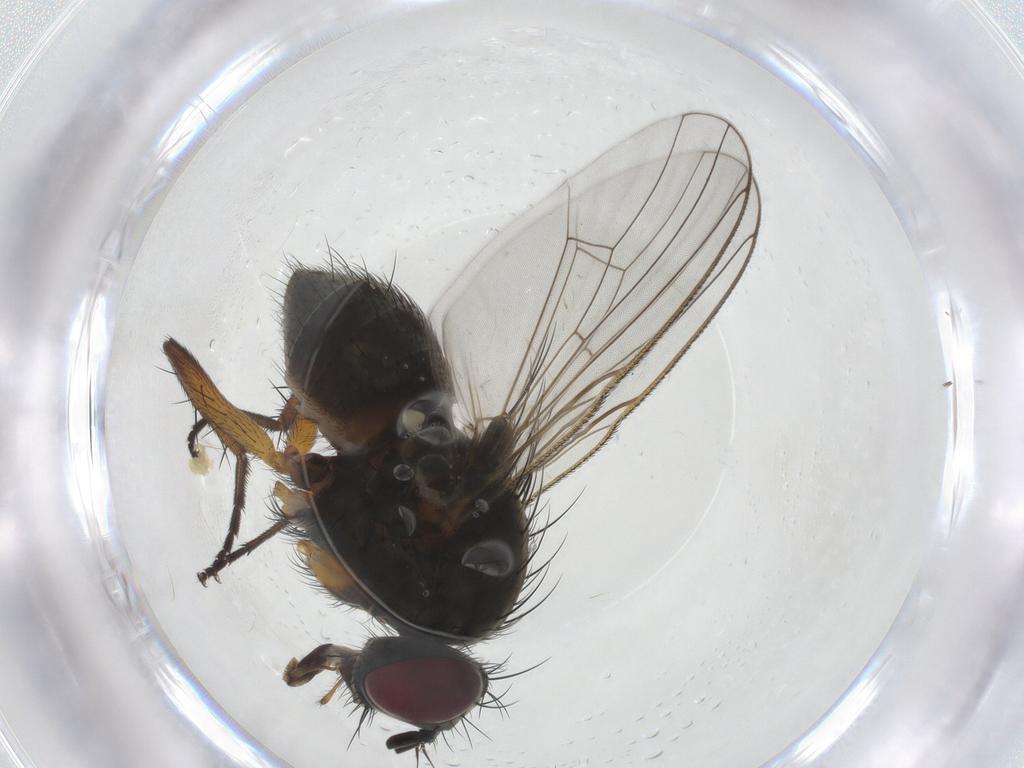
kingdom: Animalia
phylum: Arthropoda
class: Insecta
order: Diptera
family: Muscidae
